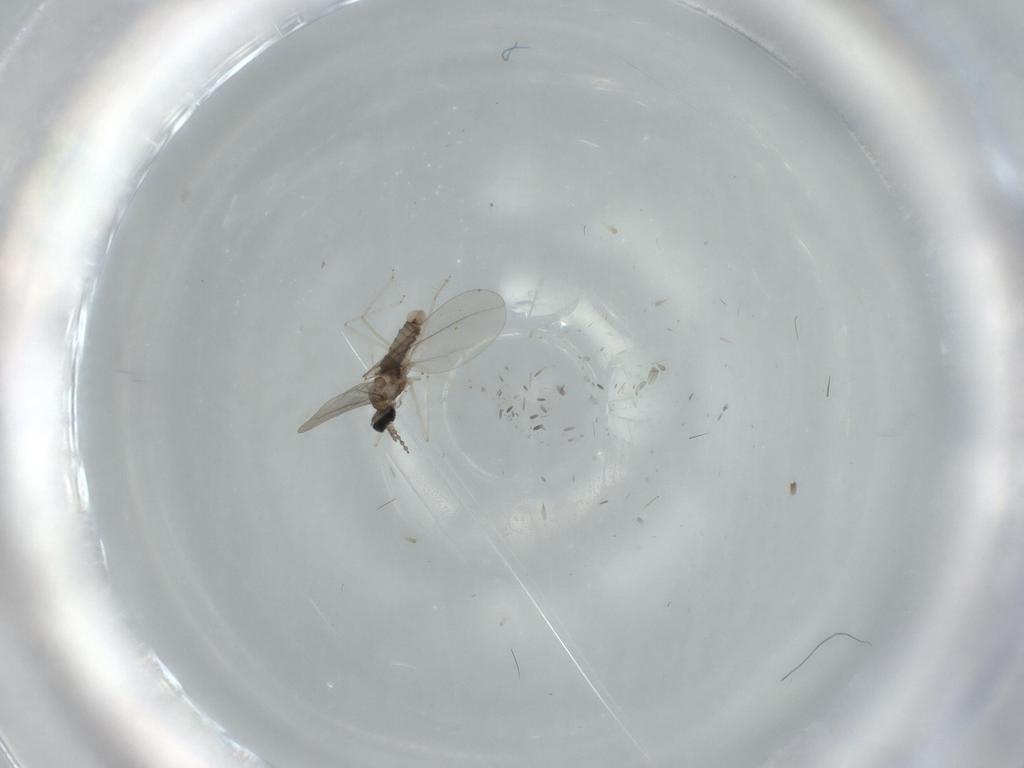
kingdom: Animalia
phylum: Arthropoda
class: Insecta
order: Diptera
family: Cecidomyiidae
